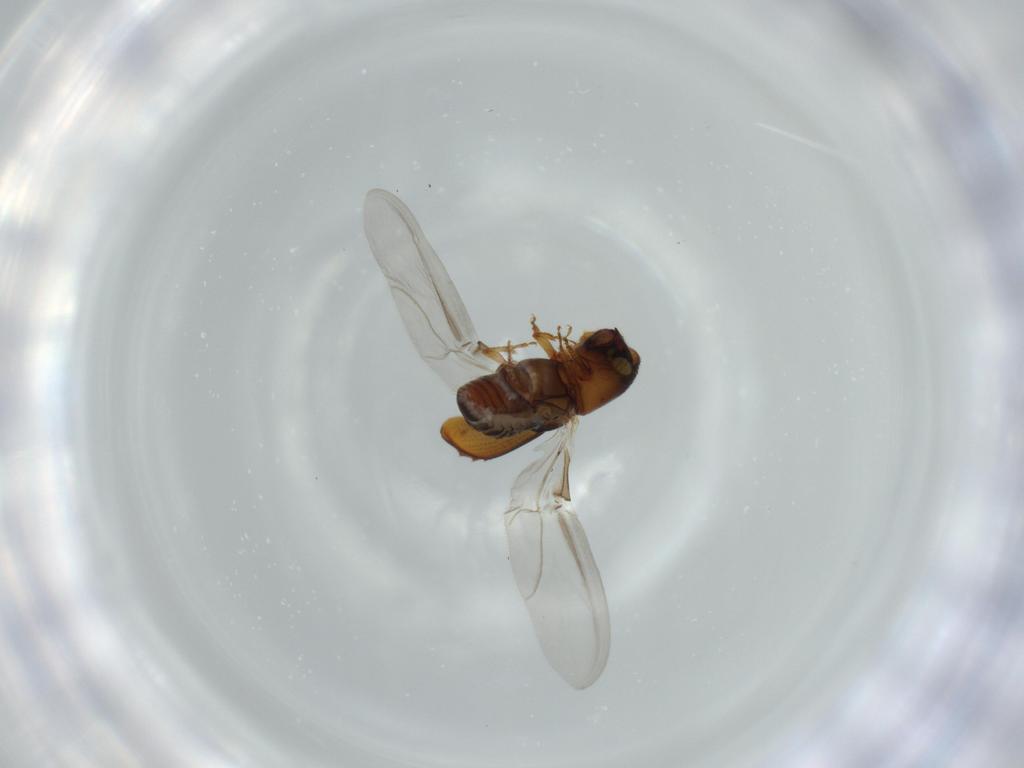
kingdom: Animalia
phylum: Arthropoda
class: Insecta
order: Coleoptera
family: Curculionidae
